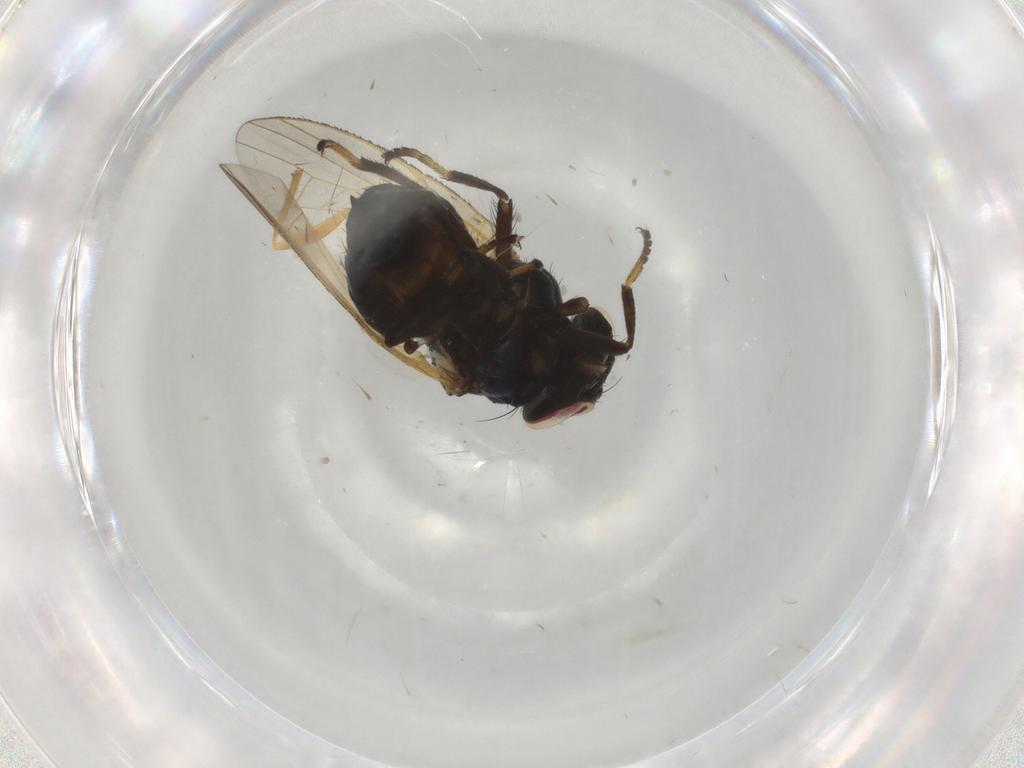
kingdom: Animalia
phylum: Arthropoda
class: Insecta
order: Diptera
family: Lonchaeidae
